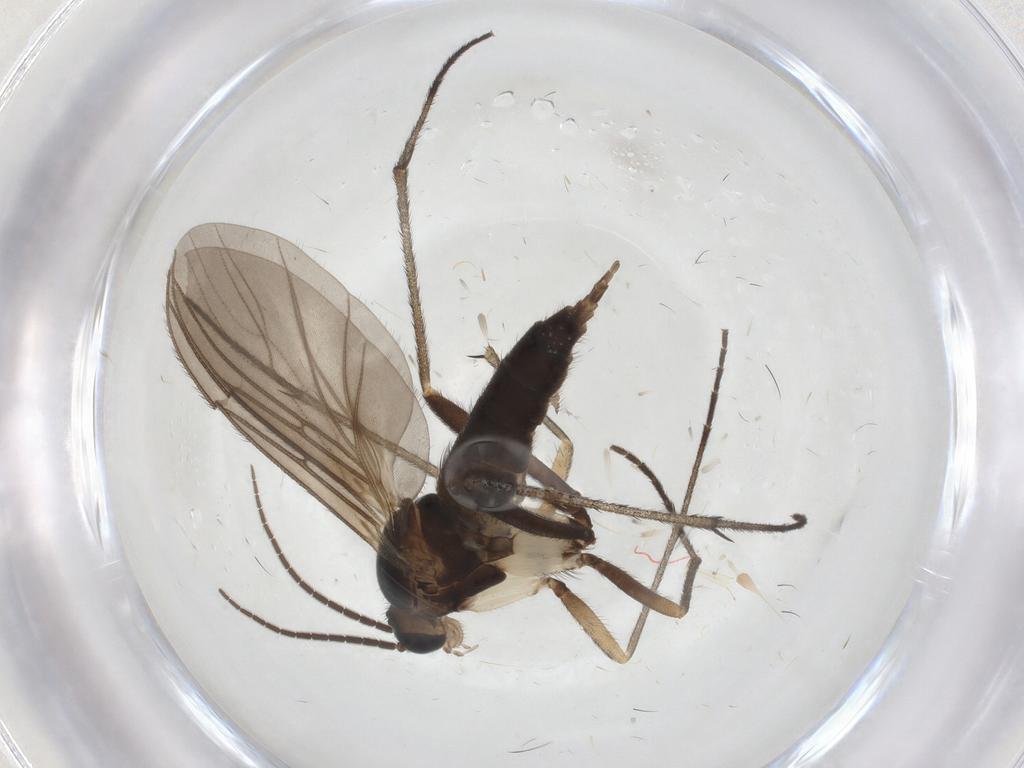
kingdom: Animalia
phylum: Arthropoda
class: Insecta
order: Diptera
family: Sciaridae
